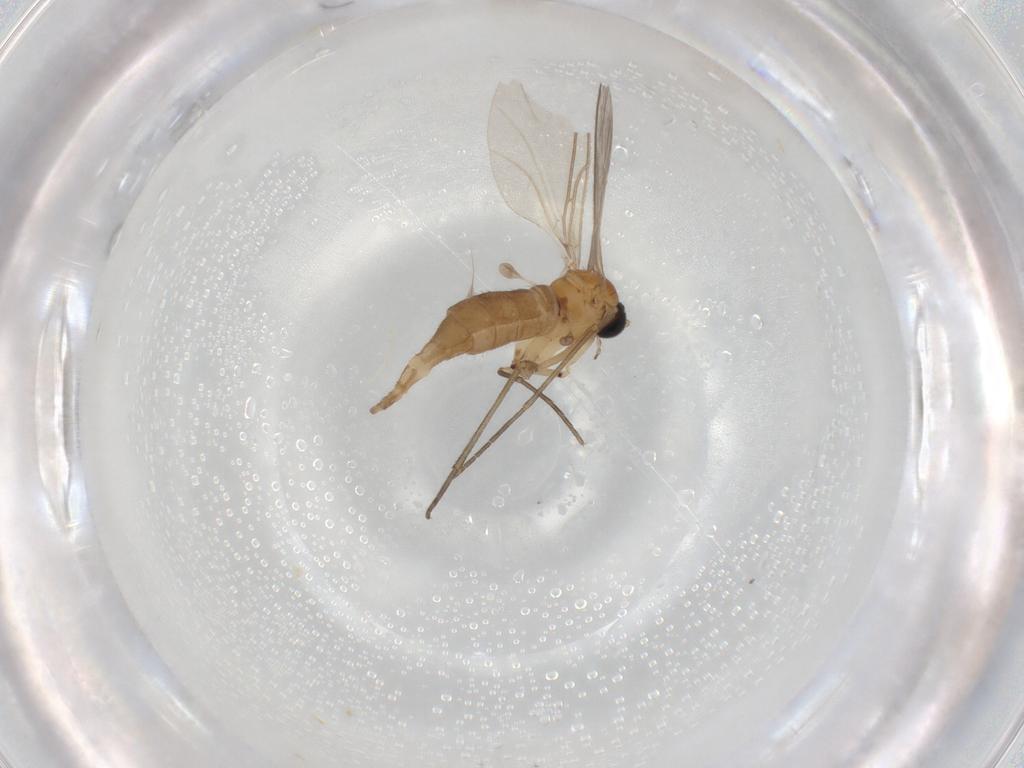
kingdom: Animalia
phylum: Arthropoda
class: Insecta
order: Diptera
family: Sciaridae
